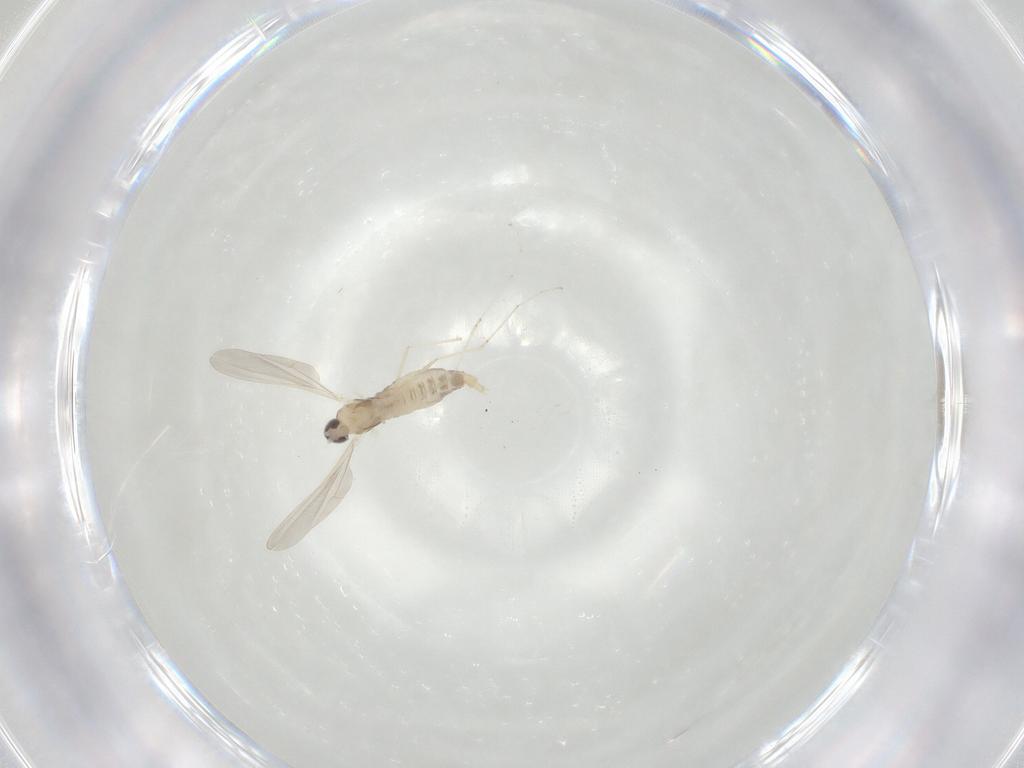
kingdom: Animalia
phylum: Arthropoda
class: Insecta
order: Diptera
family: Cecidomyiidae
